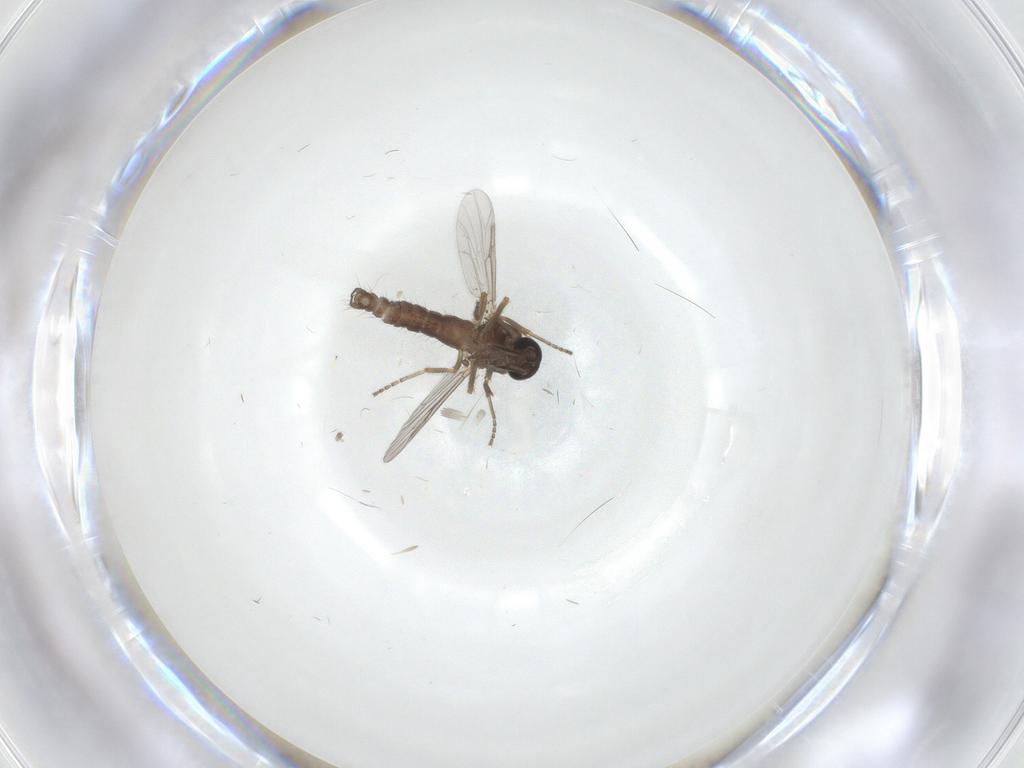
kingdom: Animalia
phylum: Arthropoda
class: Insecta
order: Diptera
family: Ceratopogonidae
